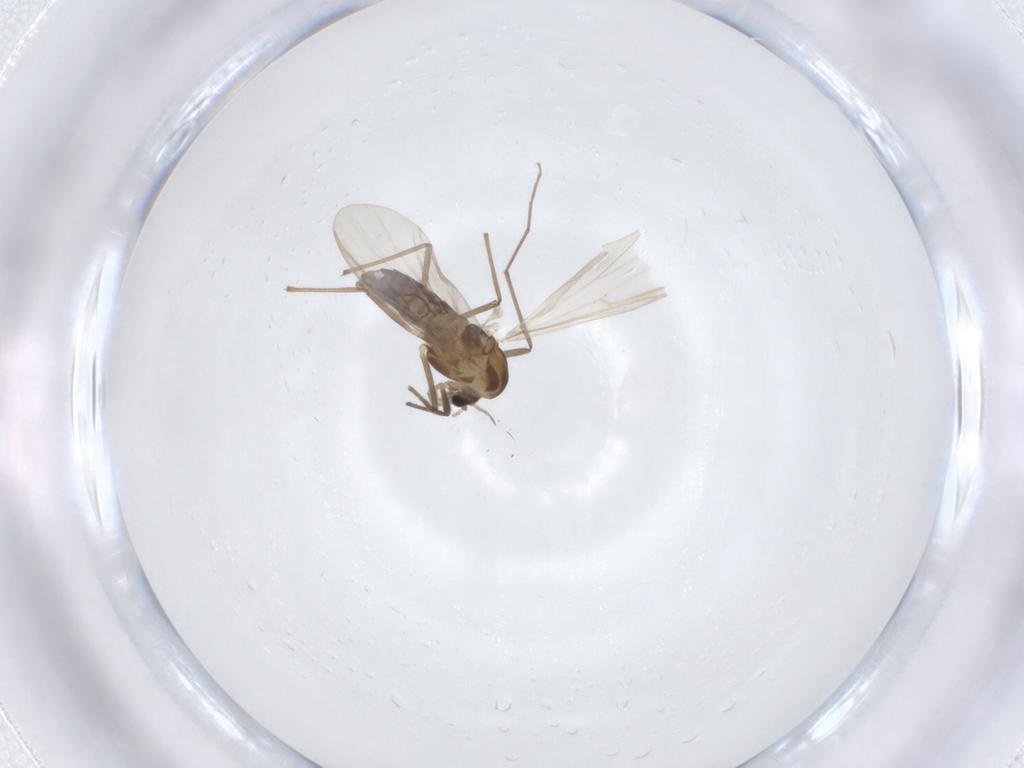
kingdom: Animalia
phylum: Arthropoda
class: Insecta
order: Diptera
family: Chironomidae
